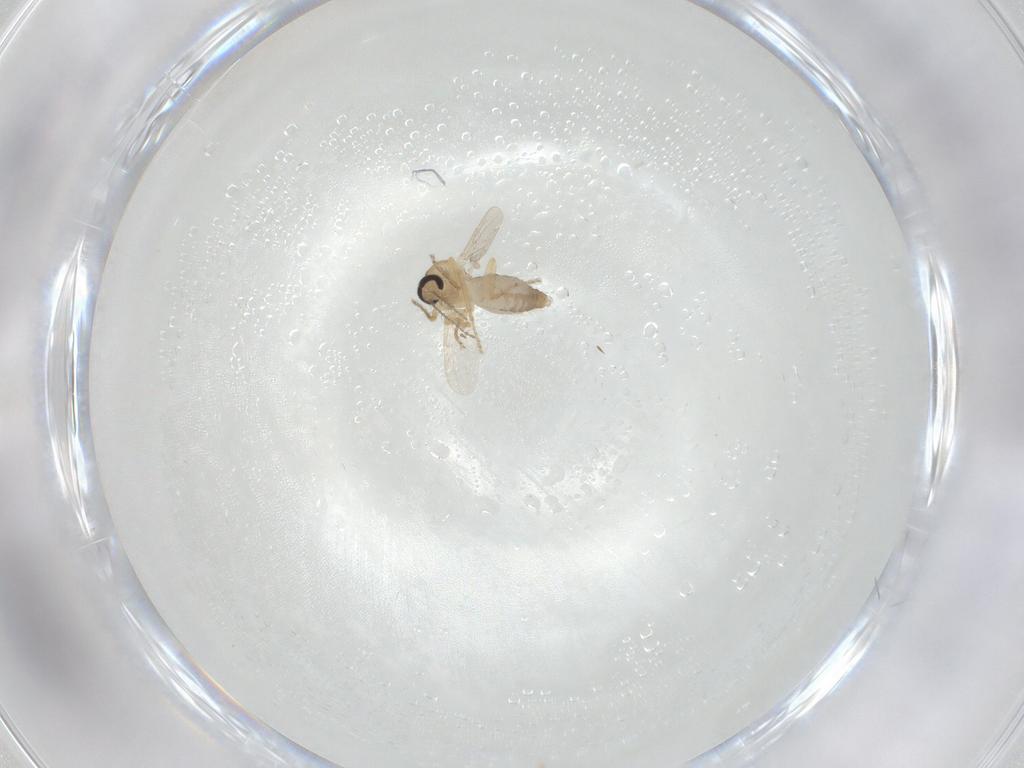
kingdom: Animalia
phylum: Arthropoda
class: Insecta
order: Diptera
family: Ceratopogonidae
